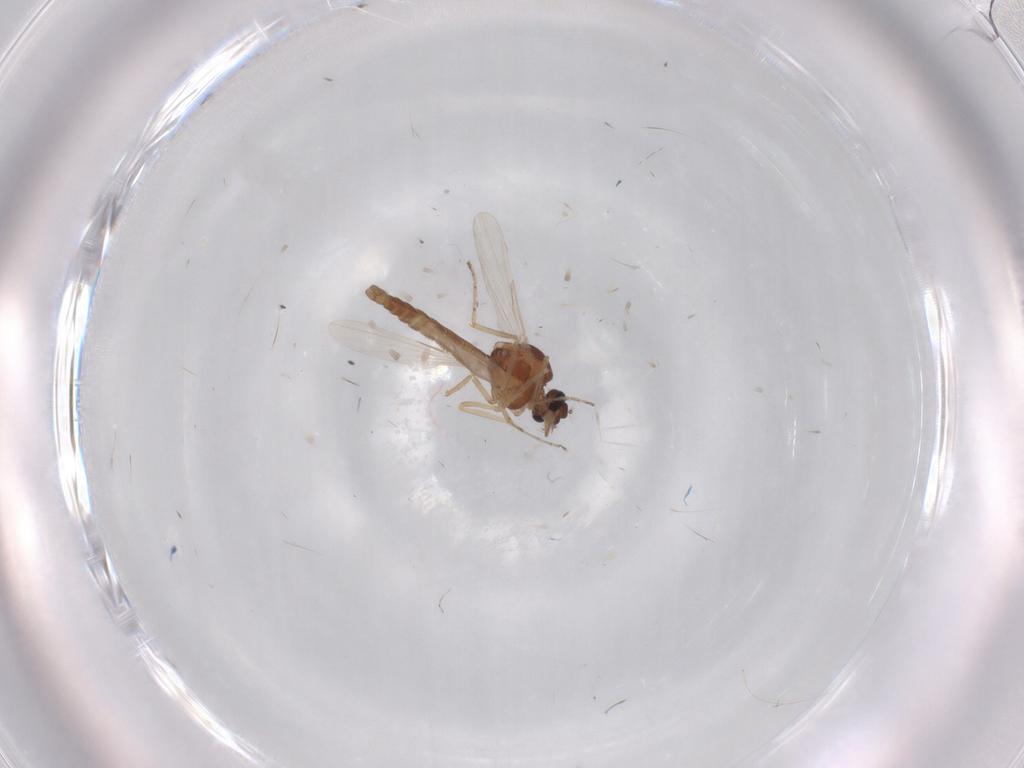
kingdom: Animalia
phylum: Arthropoda
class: Insecta
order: Diptera
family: Ceratopogonidae
